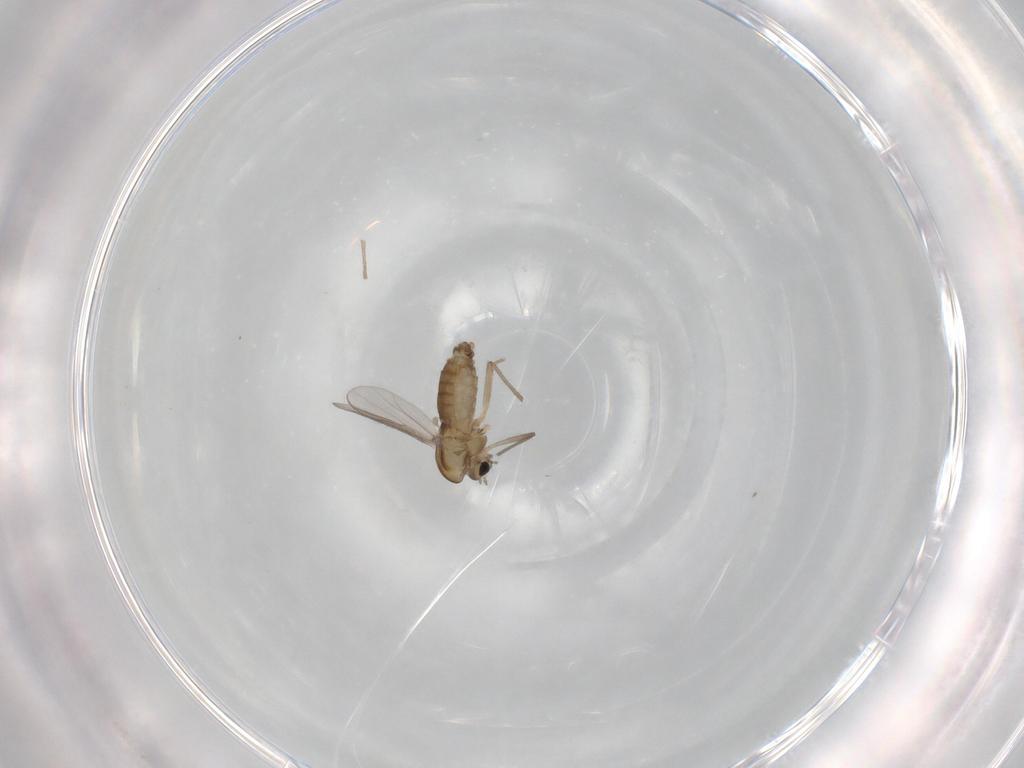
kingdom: Animalia
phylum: Arthropoda
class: Insecta
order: Diptera
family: Chironomidae
